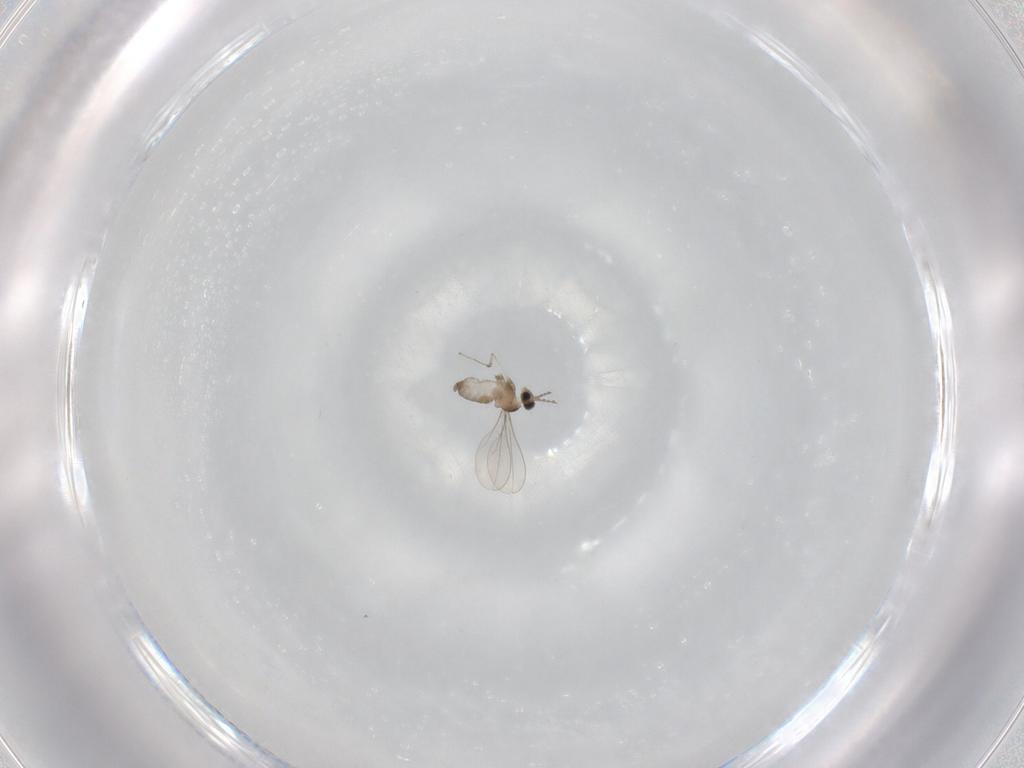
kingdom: Animalia
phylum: Arthropoda
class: Insecta
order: Diptera
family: Cecidomyiidae
